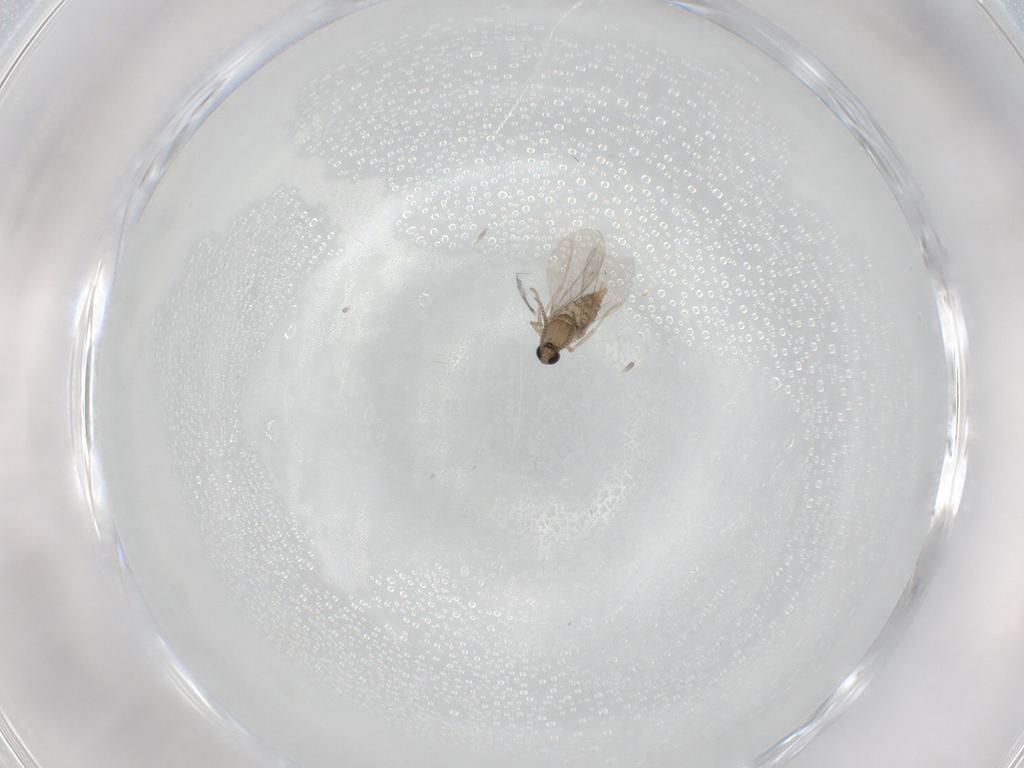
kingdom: Animalia
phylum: Arthropoda
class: Insecta
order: Diptera
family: Cecidomyiidae
